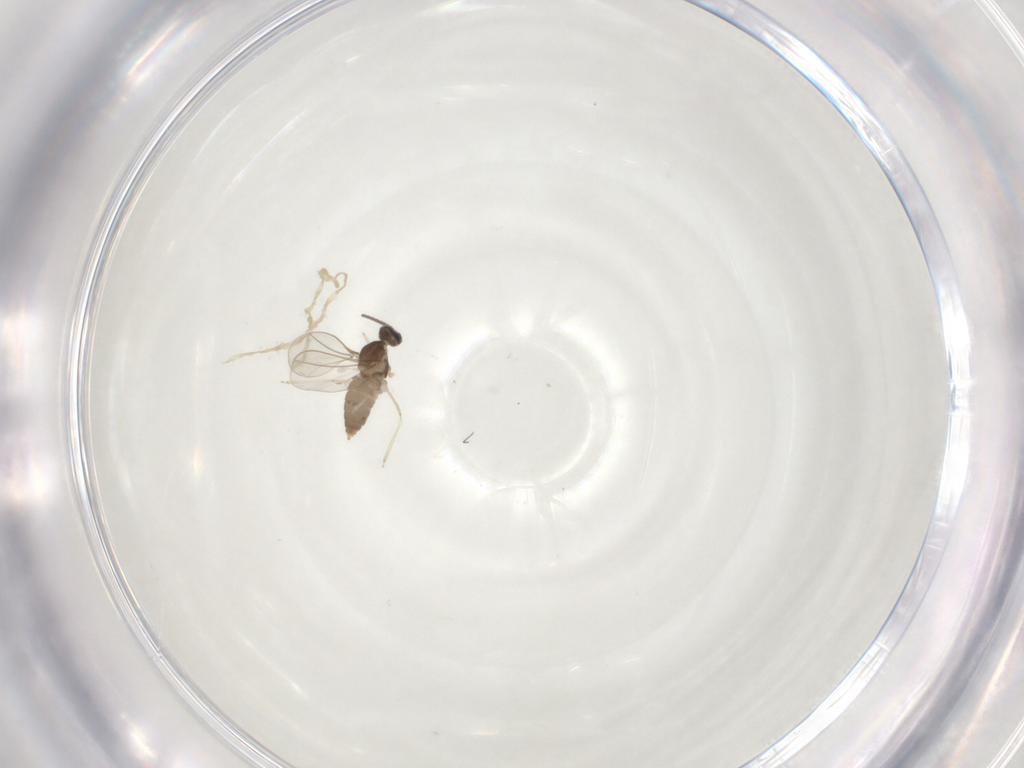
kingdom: Animalia
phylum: Arthropoda
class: Insecta
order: Diptera
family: Cecidomyiidae
